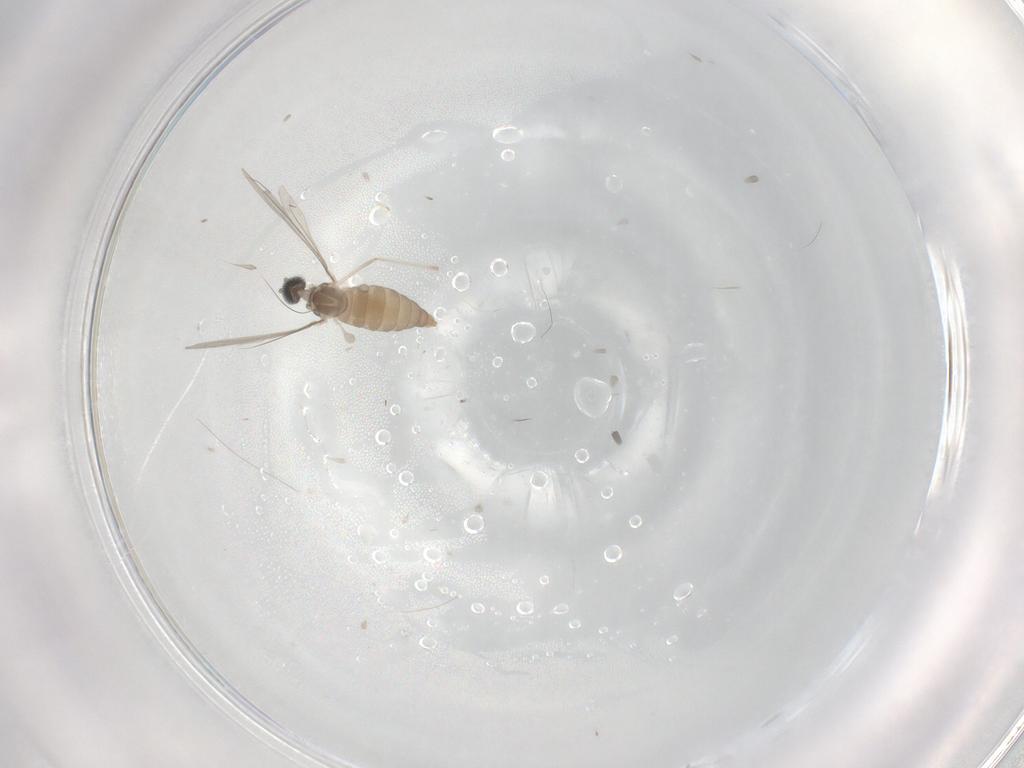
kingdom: Animalia
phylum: Arthropoda
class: Insecta
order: Diptera
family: Cecidomyiidae
